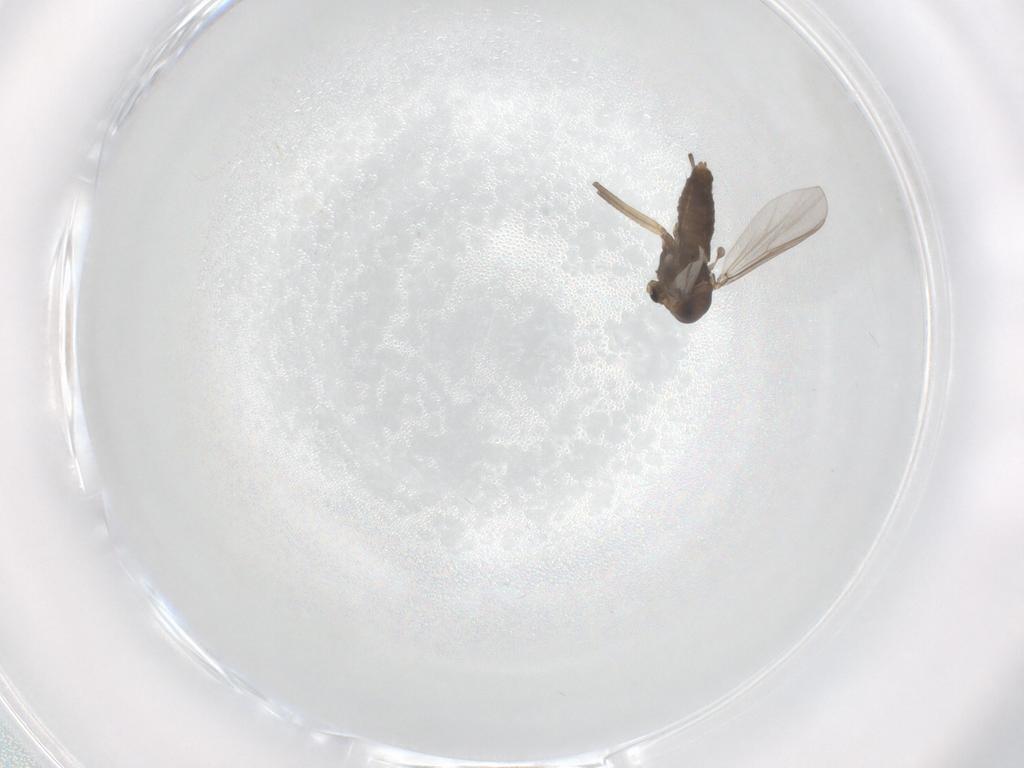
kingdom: Animalia
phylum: Arthropoda
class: Insecta
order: Diptera
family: Chironomidae
